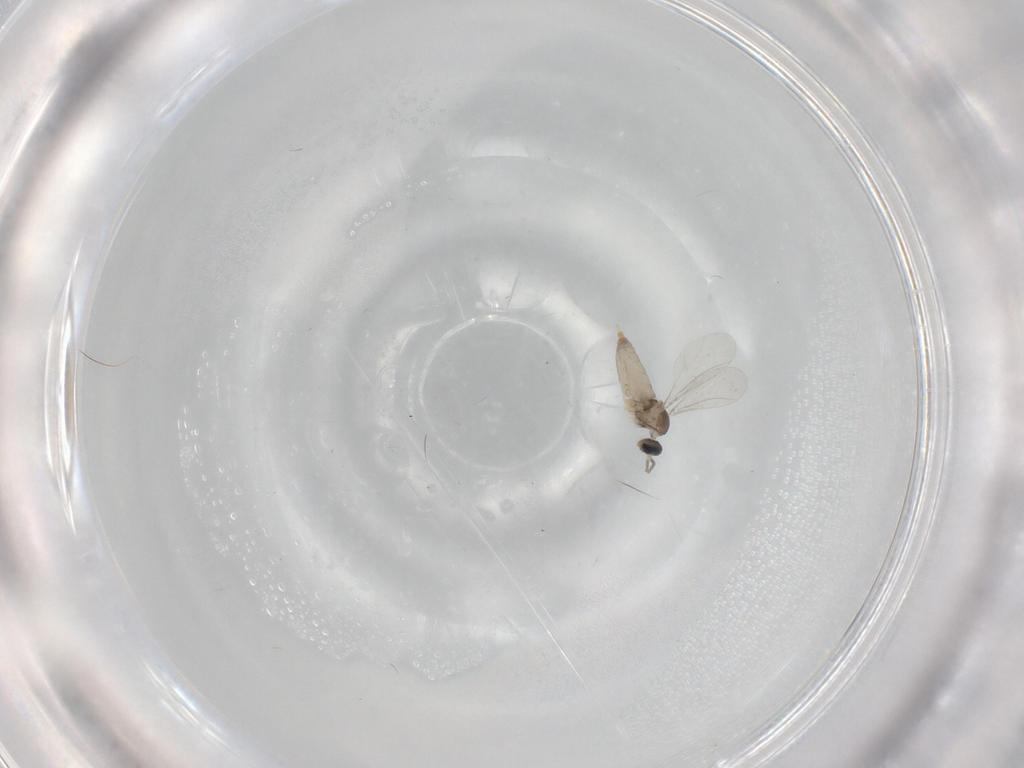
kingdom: Animalia
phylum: Arthropoda
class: Insecta
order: Diptera
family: Cecidomyiidae
